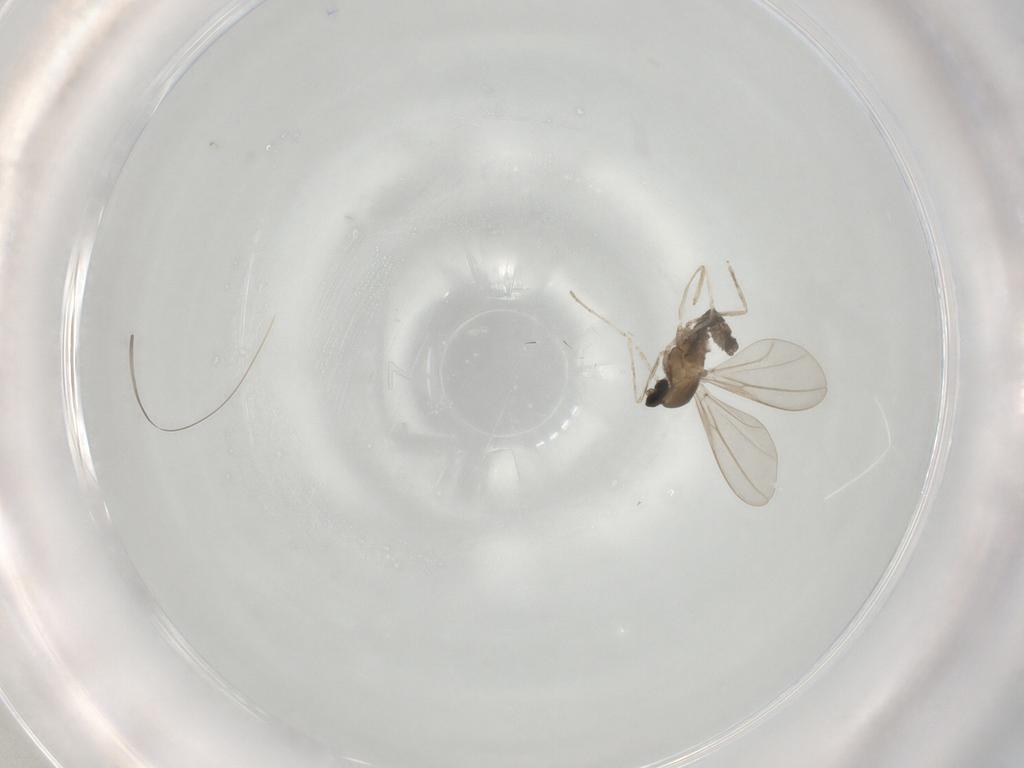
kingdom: Animalia
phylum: Arthropoda
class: Insecta
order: Diptera
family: Cecidomyiidae
